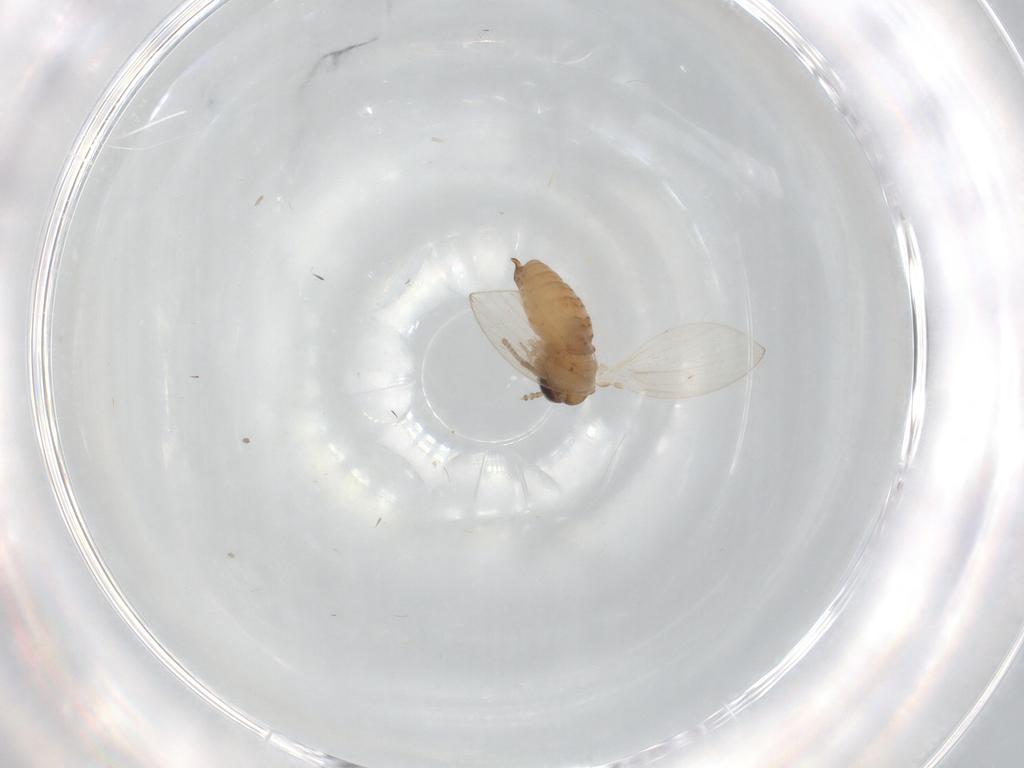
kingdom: Animalia
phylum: Arthropoda
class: Insecta
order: Diptera
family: Psychodidae
